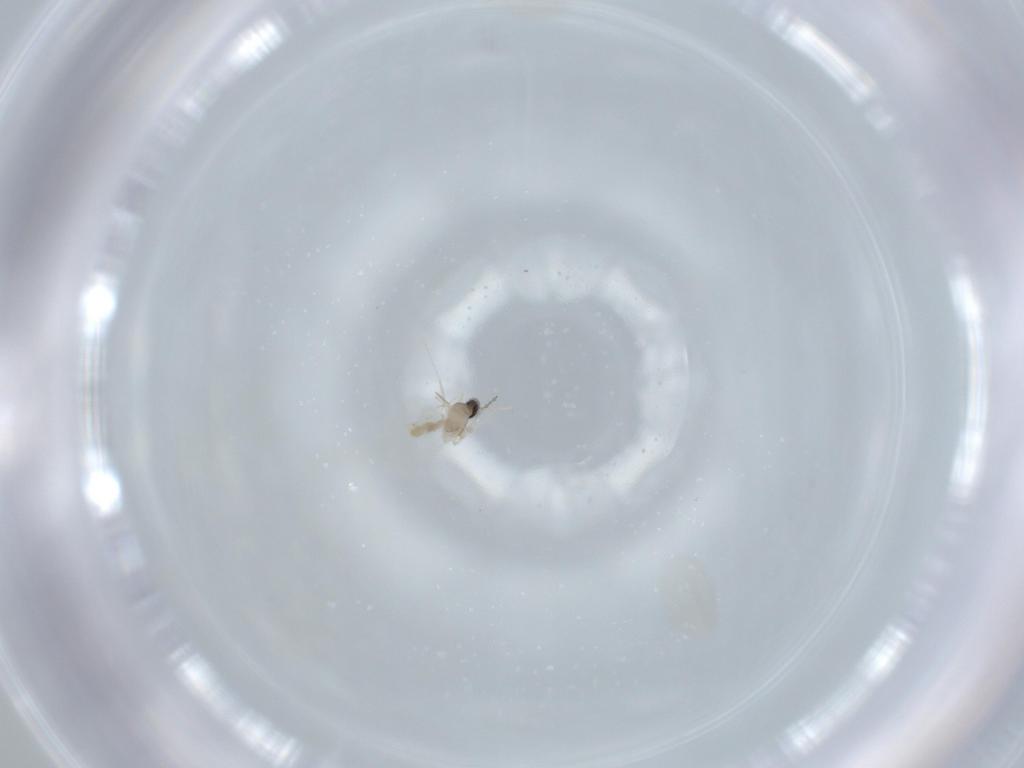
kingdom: Animalia
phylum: Arthropoda
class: Insecta
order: Diptera
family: Cecidomyiidae
